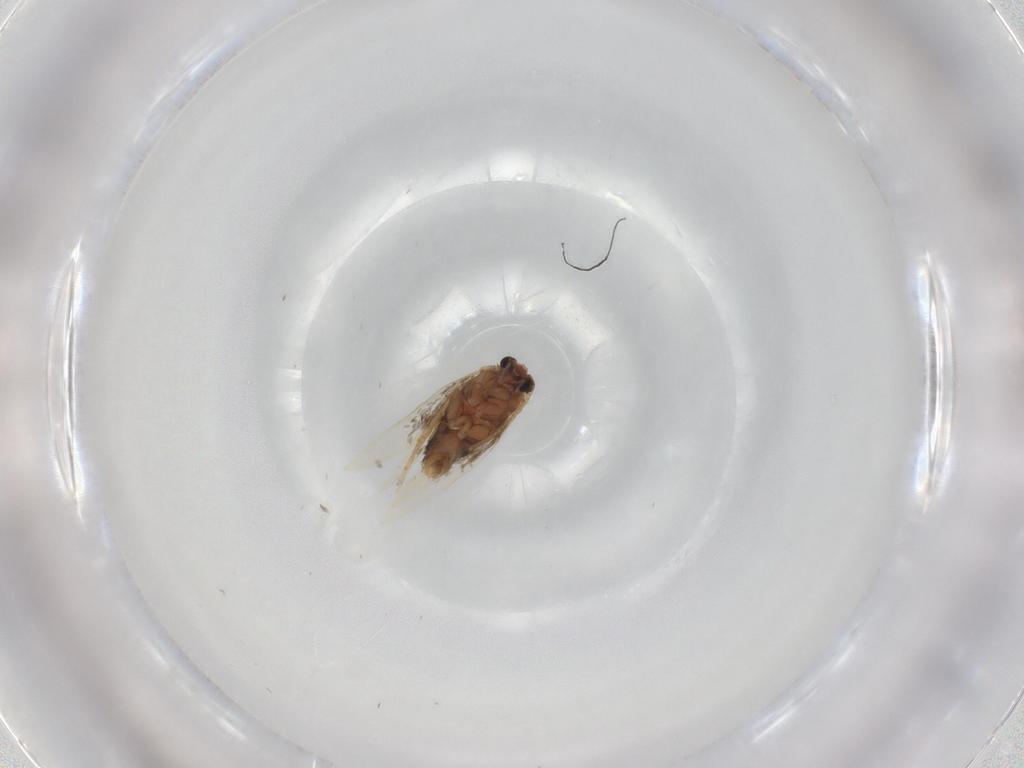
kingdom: Animalia
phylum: Arthropoda
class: Insecta
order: Lepidoptera
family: Nepticulidae
